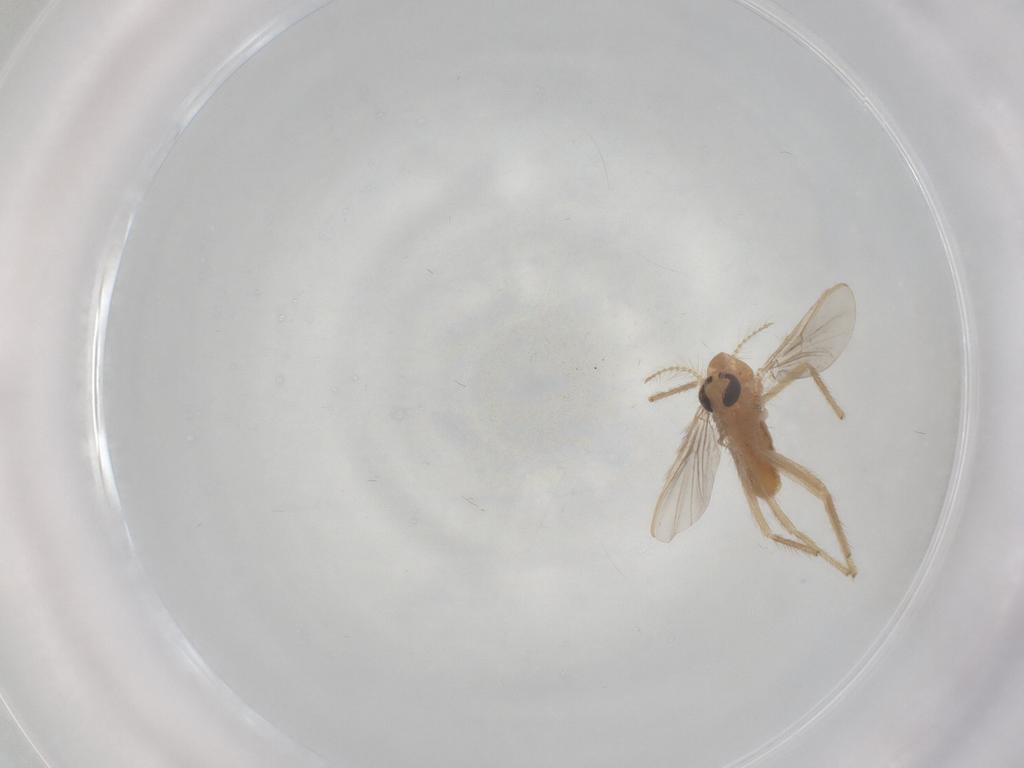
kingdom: Animalia
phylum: Arthropoda
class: Insecta
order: Diptera
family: Chironomidae
